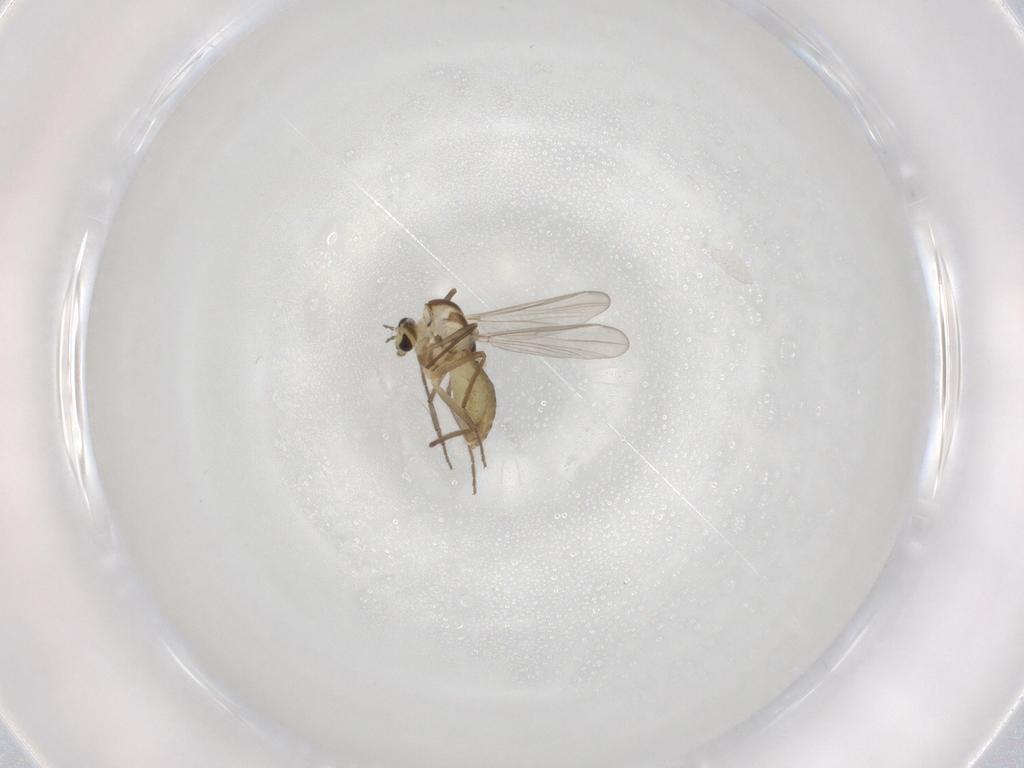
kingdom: Animalia
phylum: Arthropoda
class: Insecta
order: Diptera
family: Chironomidae
